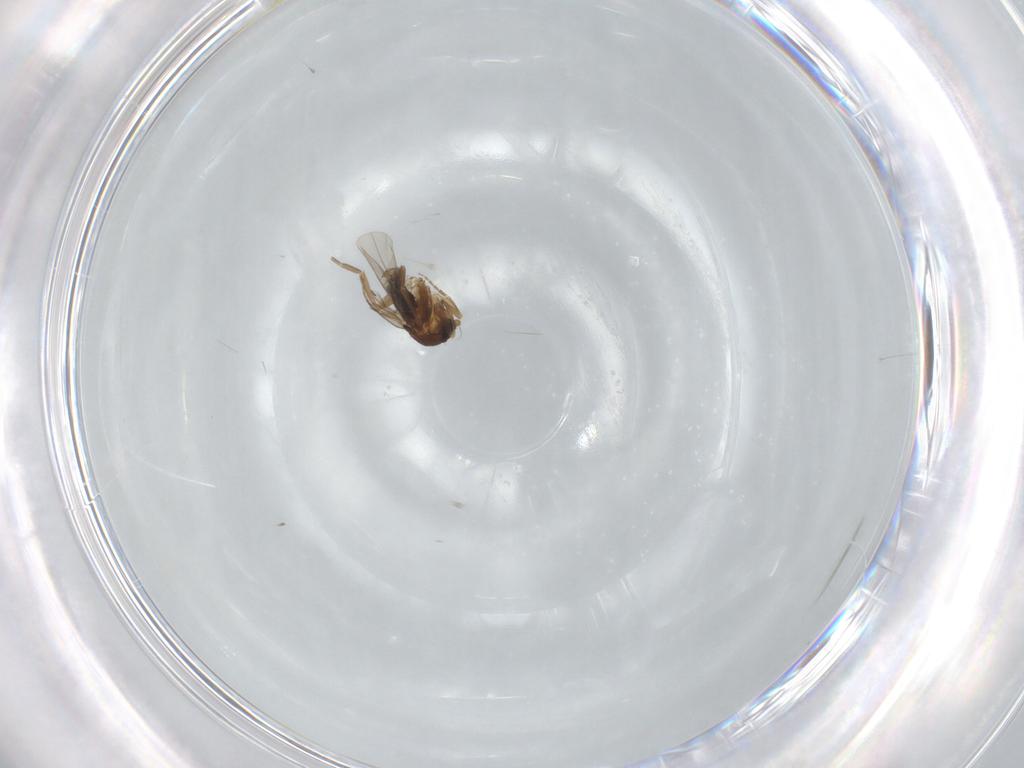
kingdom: Animalia
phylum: Arthropoda
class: Insecta
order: Diptera
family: Phoridae
